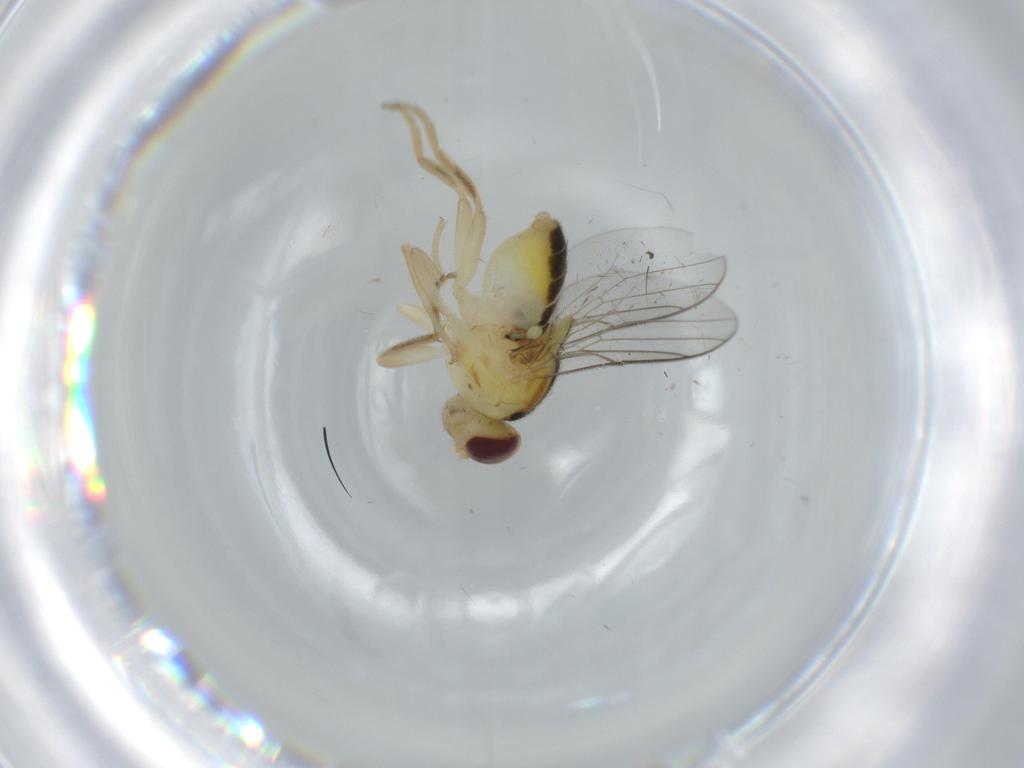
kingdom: Animalia
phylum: Arthropoda
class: Insecta
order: Diptera
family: Chloropidae
